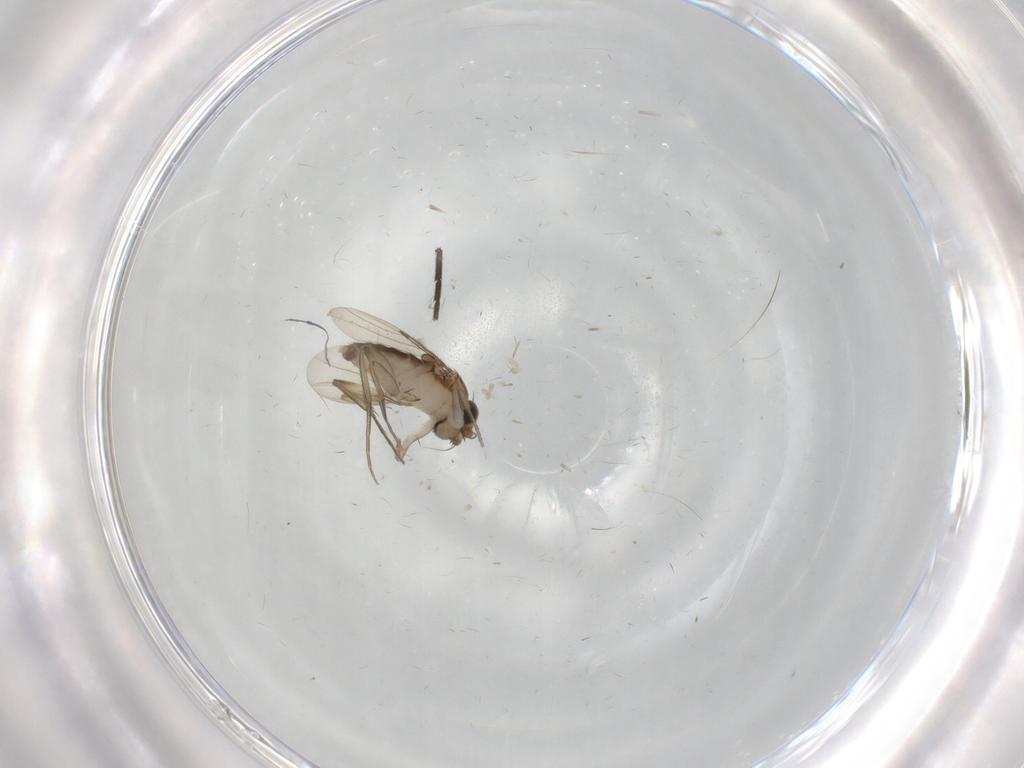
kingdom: Animalia
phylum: Arthropoda
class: Insecta
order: Diptera
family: Phoridae
